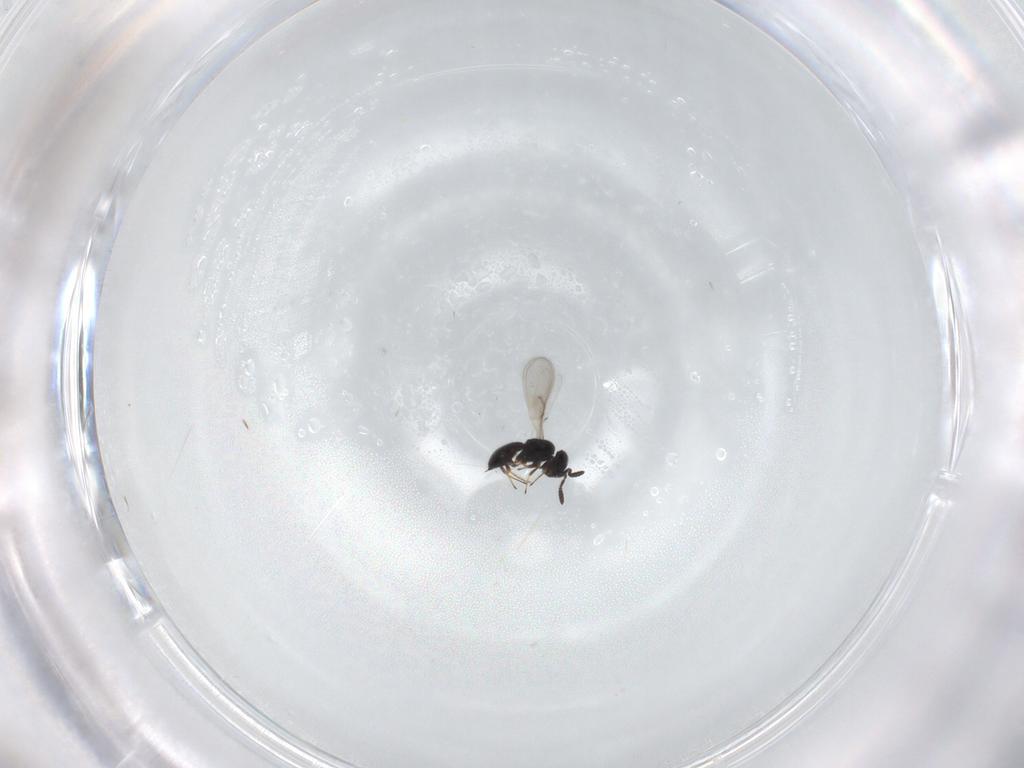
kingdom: Animalia
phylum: Arthropoda
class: Insecta
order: Hymenoptera
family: Scelionidae
